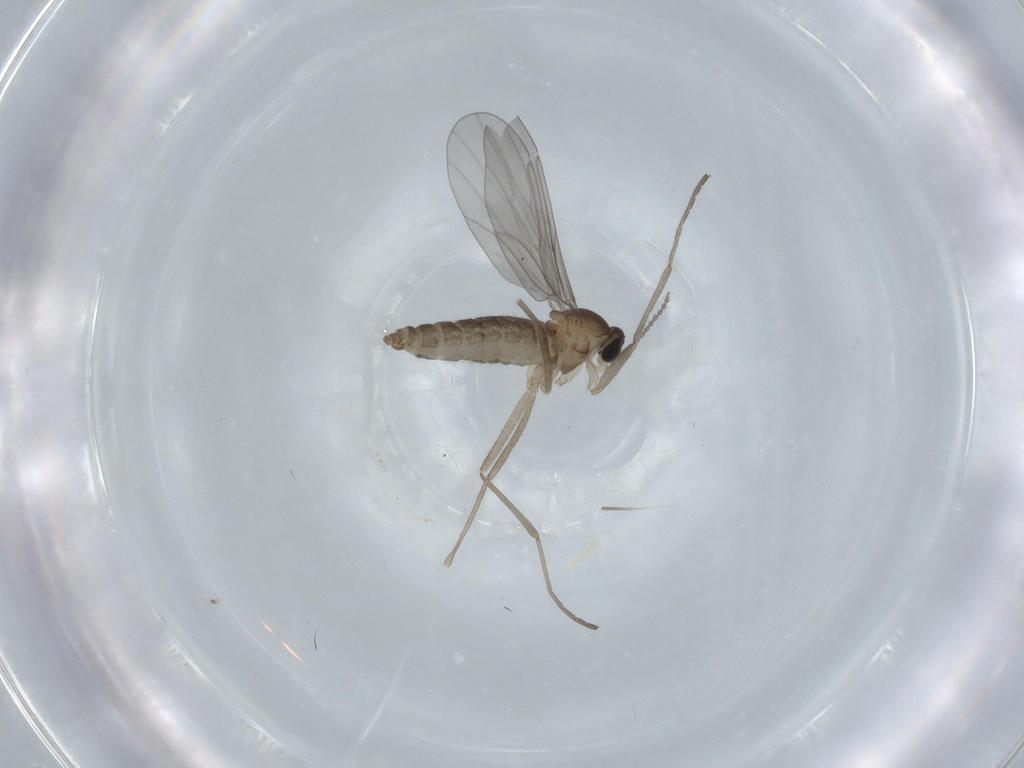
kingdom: Animalia
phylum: Arthropoda
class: Insecta
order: Diptera
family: Cecidomyiidae
